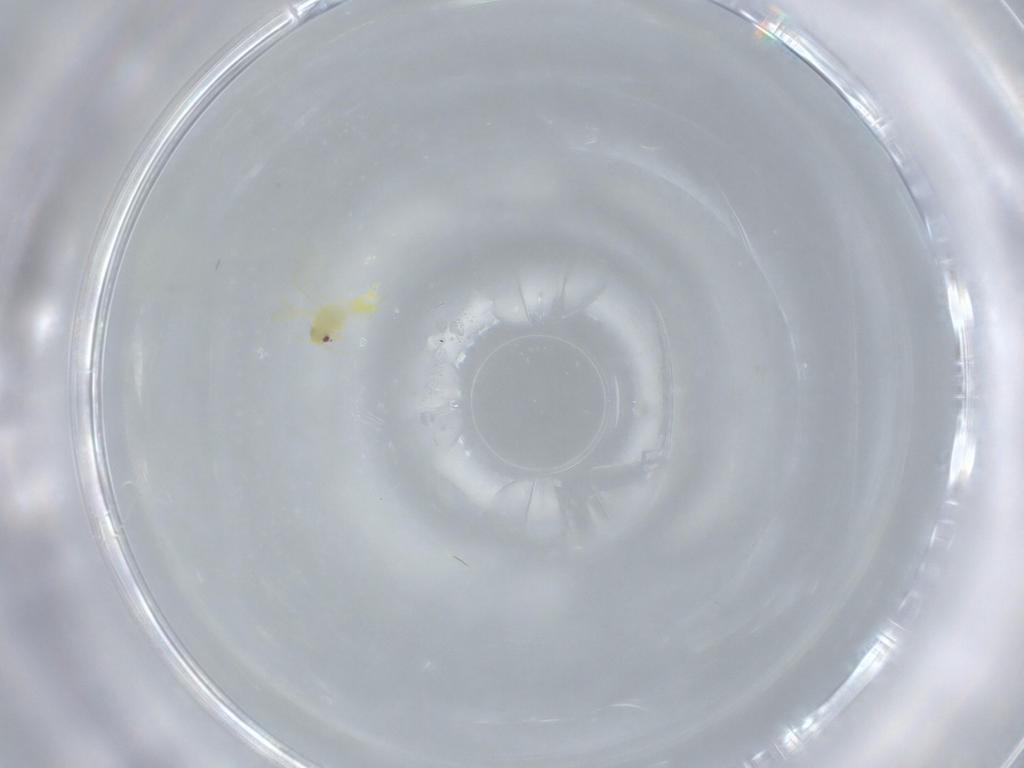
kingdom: Animalia
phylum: Arthropoda
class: Insecta
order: Hemiptera
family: Aleyrodidae
